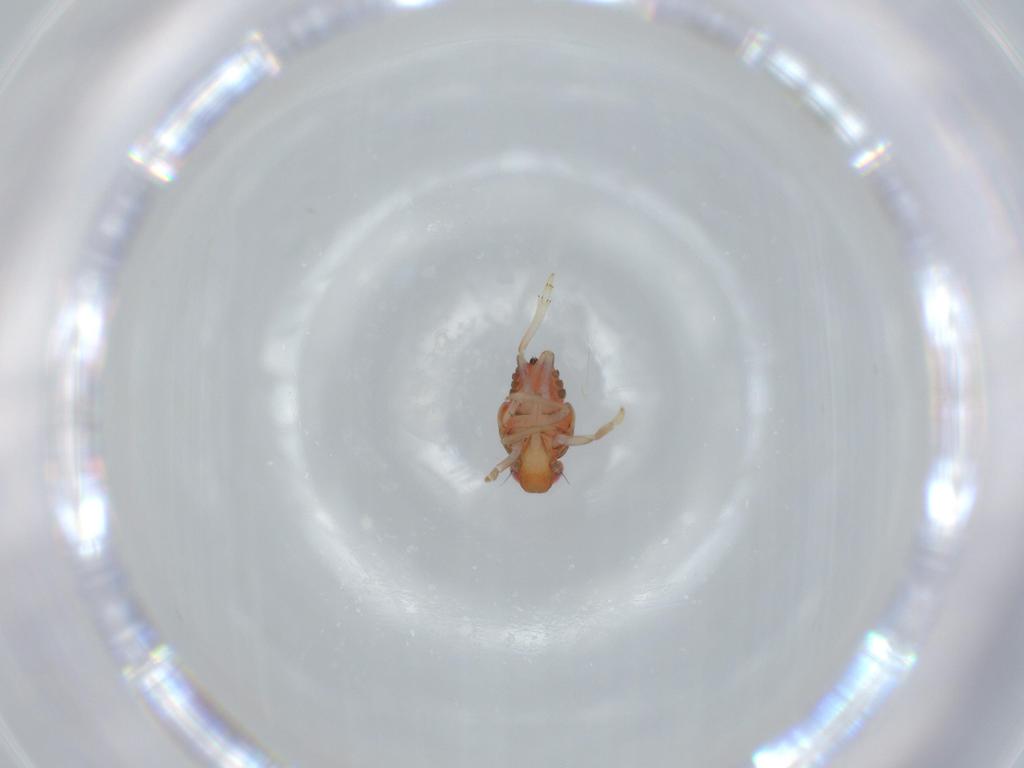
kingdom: Animalia
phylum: Arthropoda
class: Insecta
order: Hemiptera
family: Issidae
